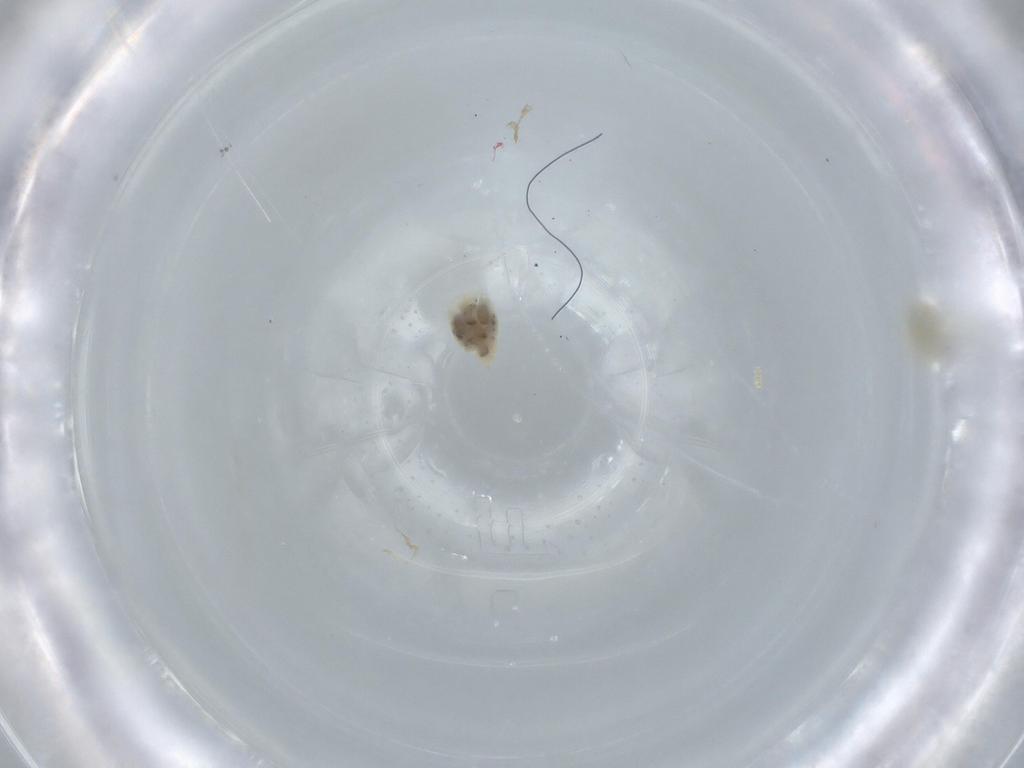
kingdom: Animalia
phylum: Arthropoda
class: Insecta
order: Hemiptera
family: Aleyrodidae
